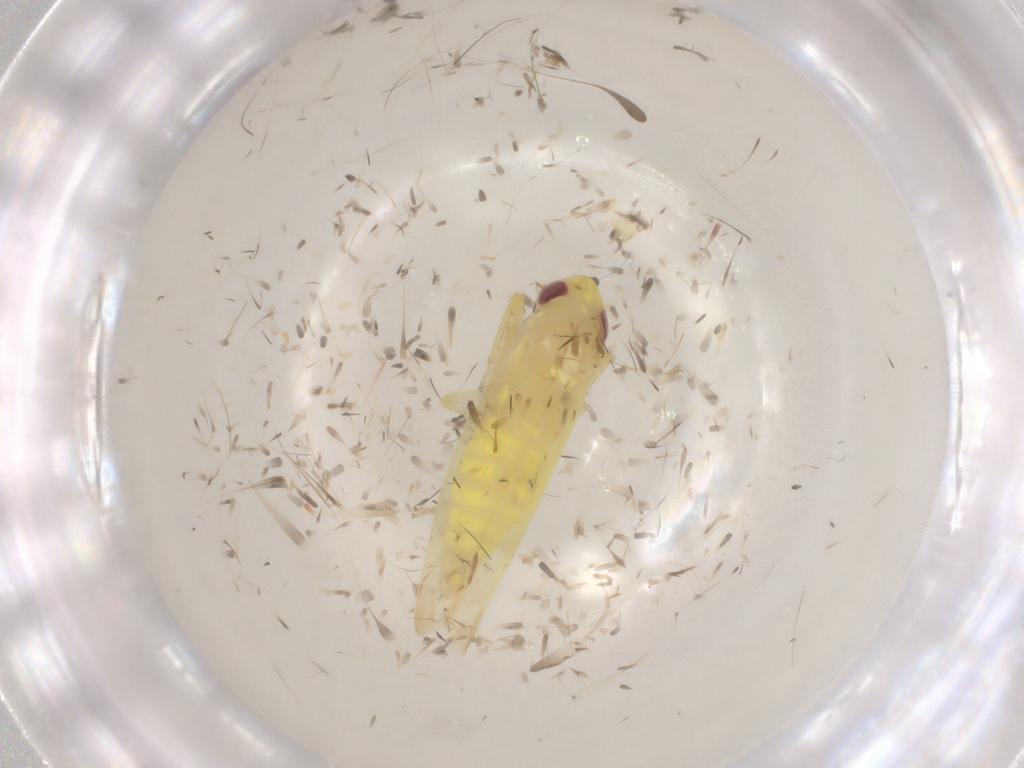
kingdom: Animalia
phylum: Arthropoda
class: Insecta
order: Hemiptera
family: Cicadellidae
